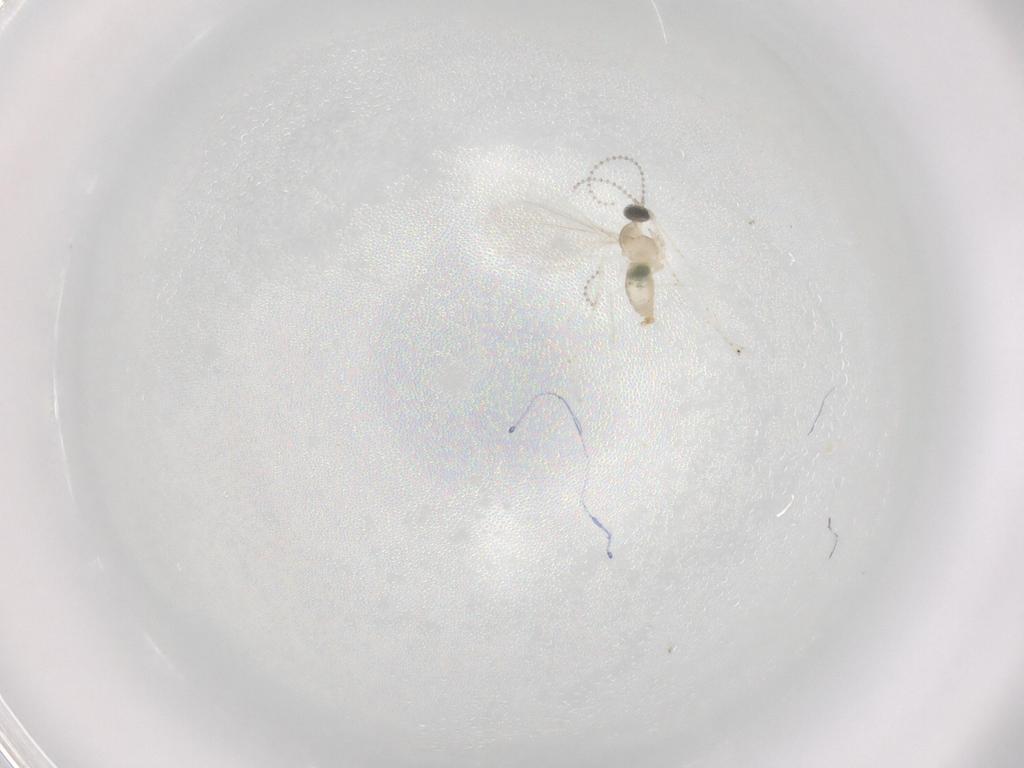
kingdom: Animalia
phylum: Arthropoda
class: Insecta
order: Diptera
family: Cecidomyiidae
